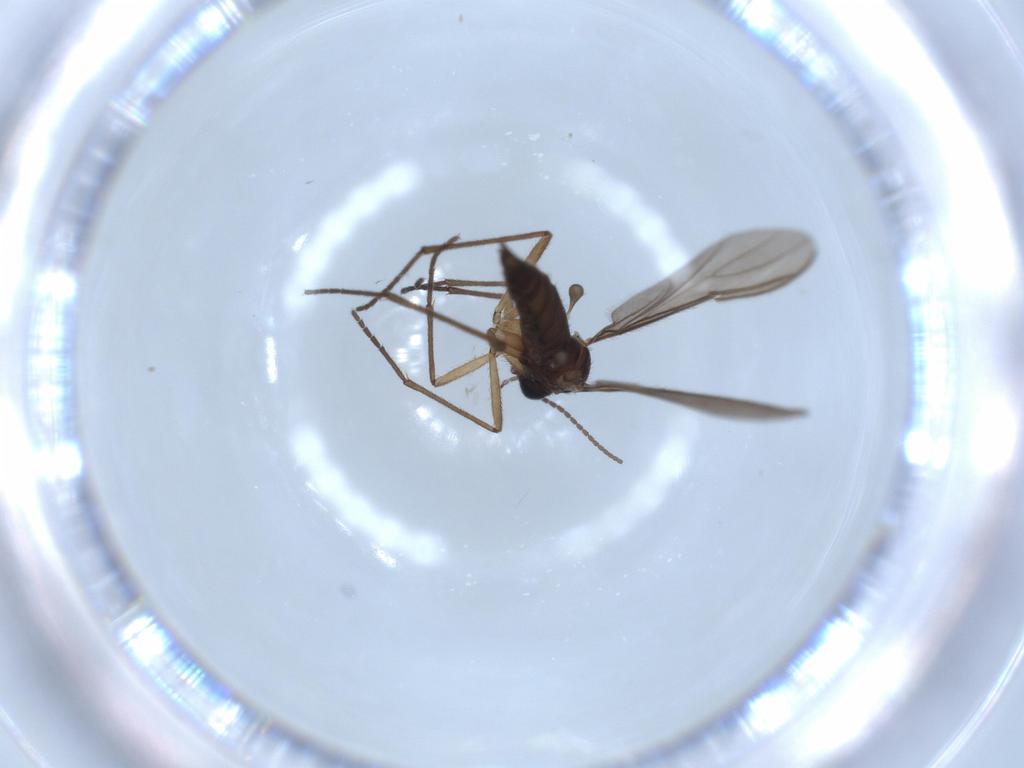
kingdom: Animalia
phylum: Arthropoda
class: Insecta
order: Diptera
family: Sciaridae
